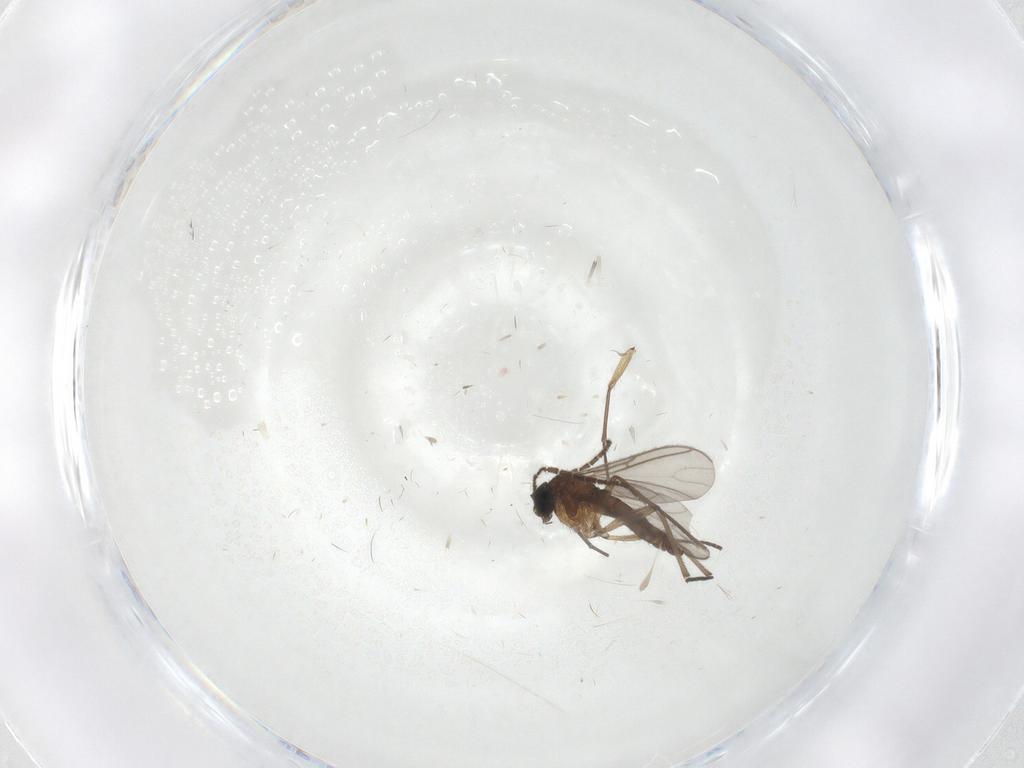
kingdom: Animalia
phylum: Arthropoda
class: Insecta
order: Diptera
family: Sciaridae
